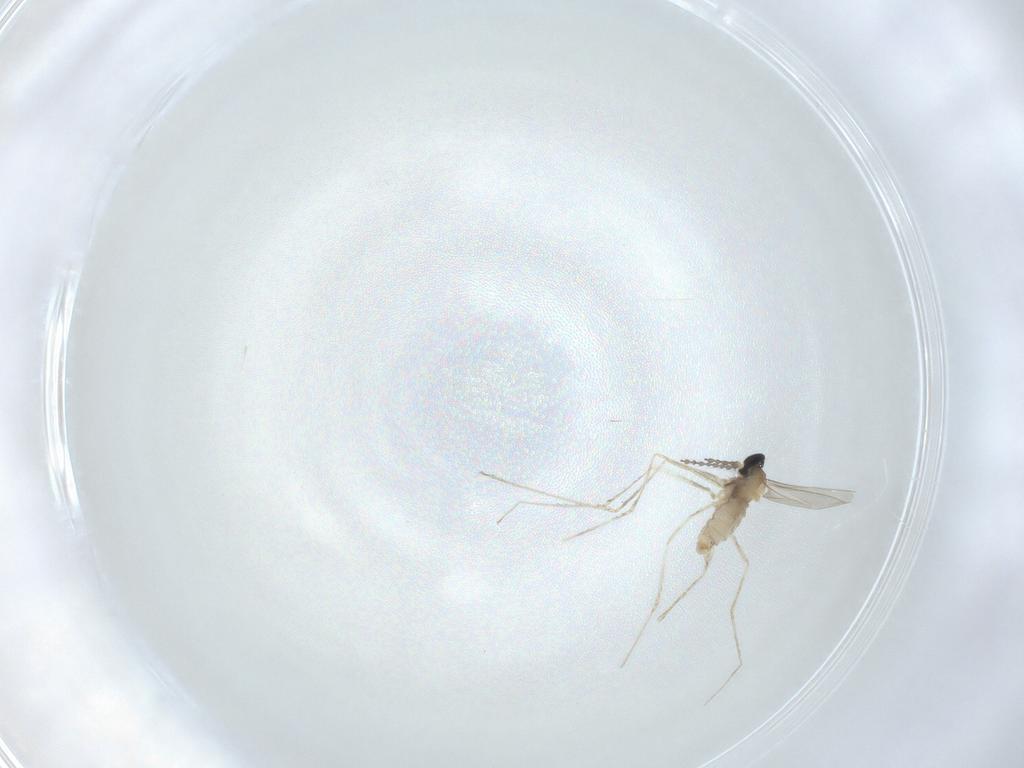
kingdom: Animalia
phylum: Arthropoda
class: Insecta
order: Diptera
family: Cecidomyiidae
